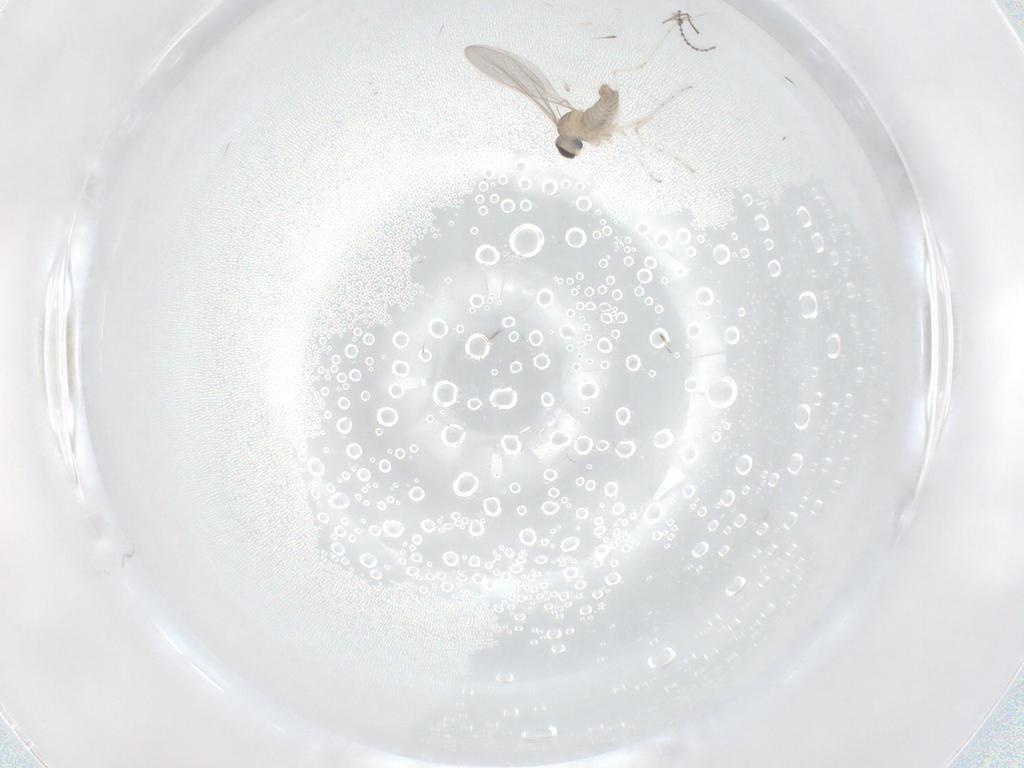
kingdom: Animalia
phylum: Arthropoda
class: Insecta
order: Diptera
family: Cecidomyiidae
